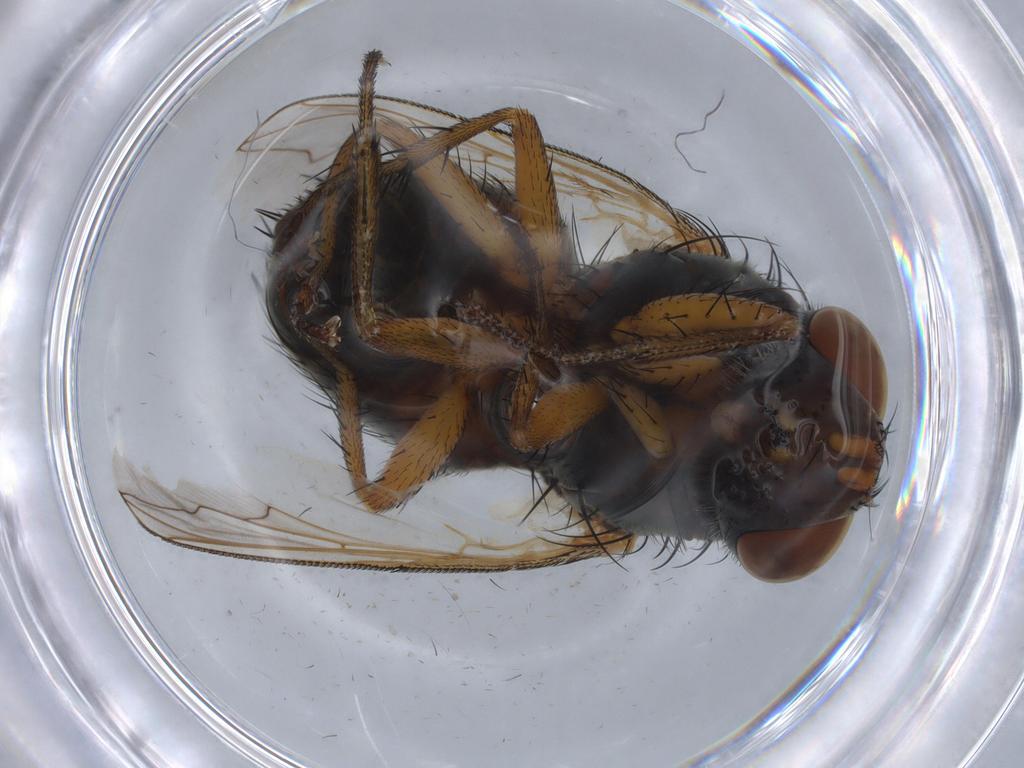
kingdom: Animalia
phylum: Arthropoda
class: Insecta
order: Diptera
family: Sarcophagidae
